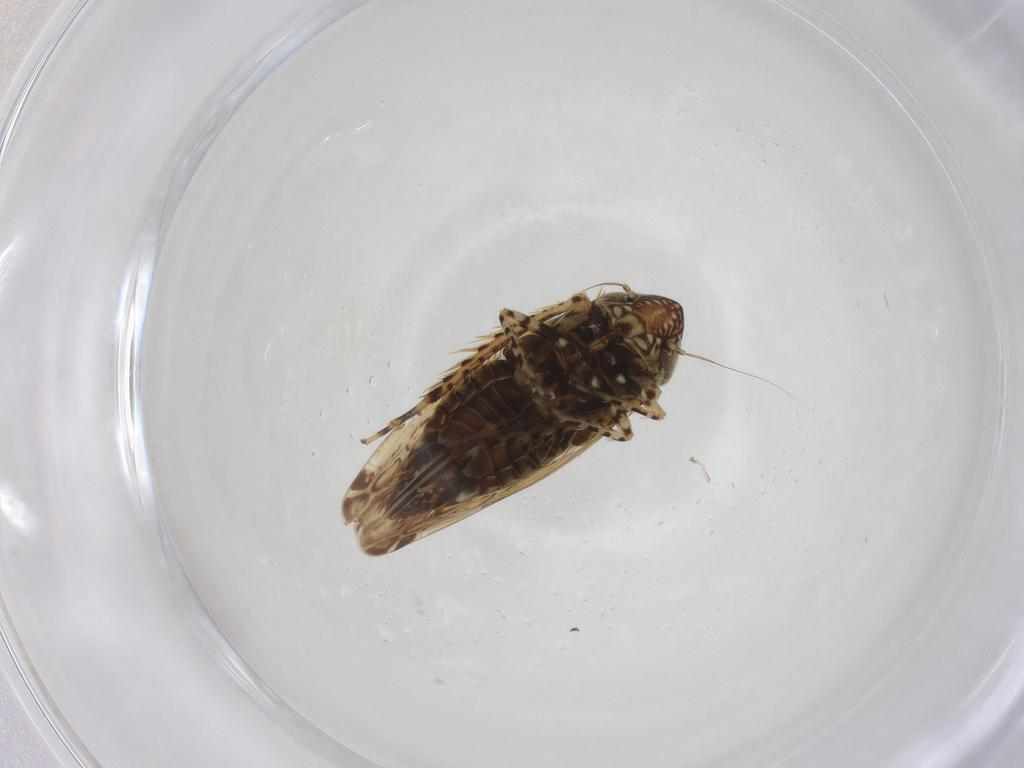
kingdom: Animalia
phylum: Arthropoda
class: Insecta
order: Hemiptera
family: Cicadellidae
